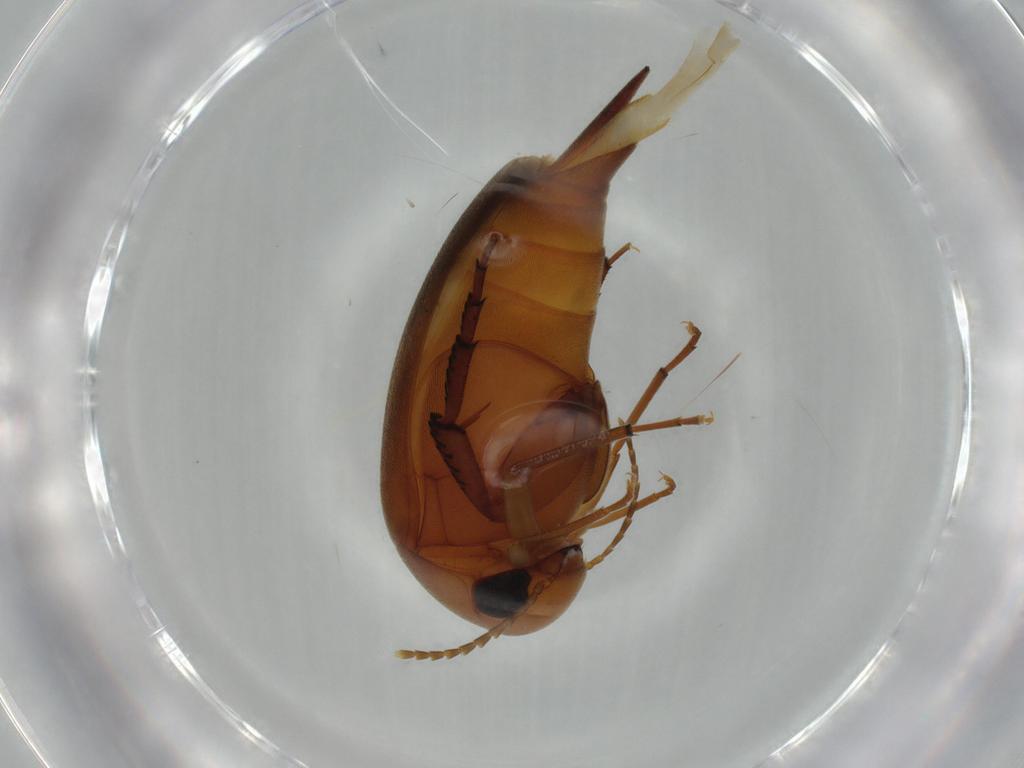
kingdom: Animalia
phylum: Arthropoda
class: Insecta
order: Coleoptera
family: Mordellidae
